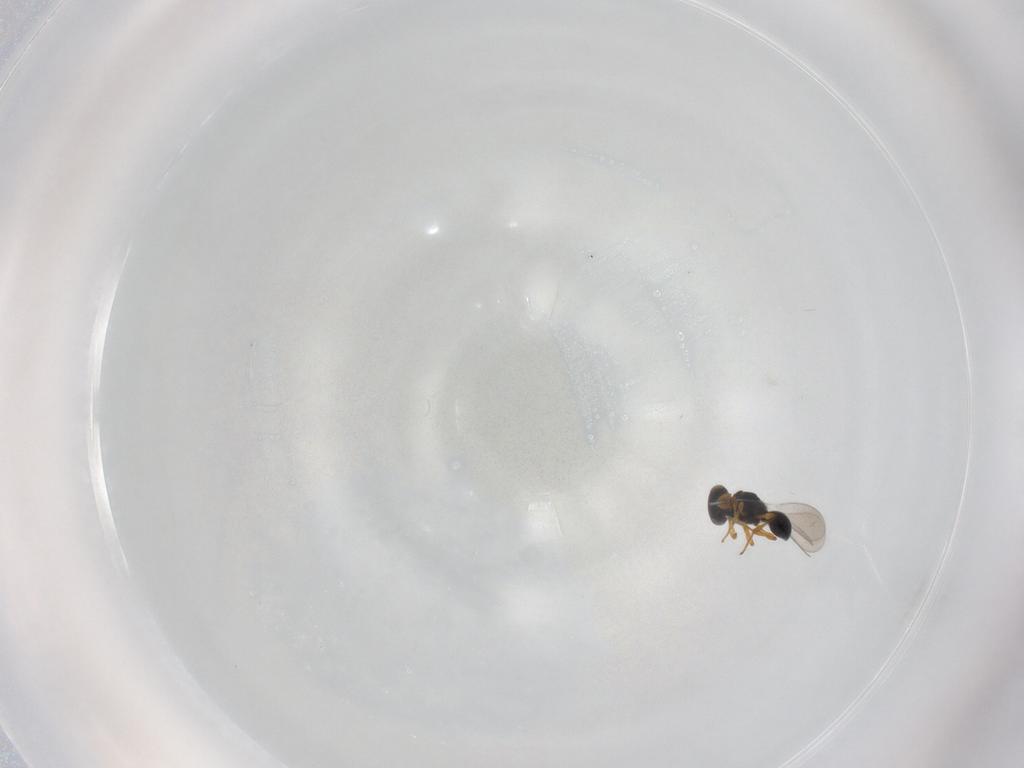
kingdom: Animalia
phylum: Arthropoda
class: Insecta
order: Hymenoptera
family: Platygastridae
